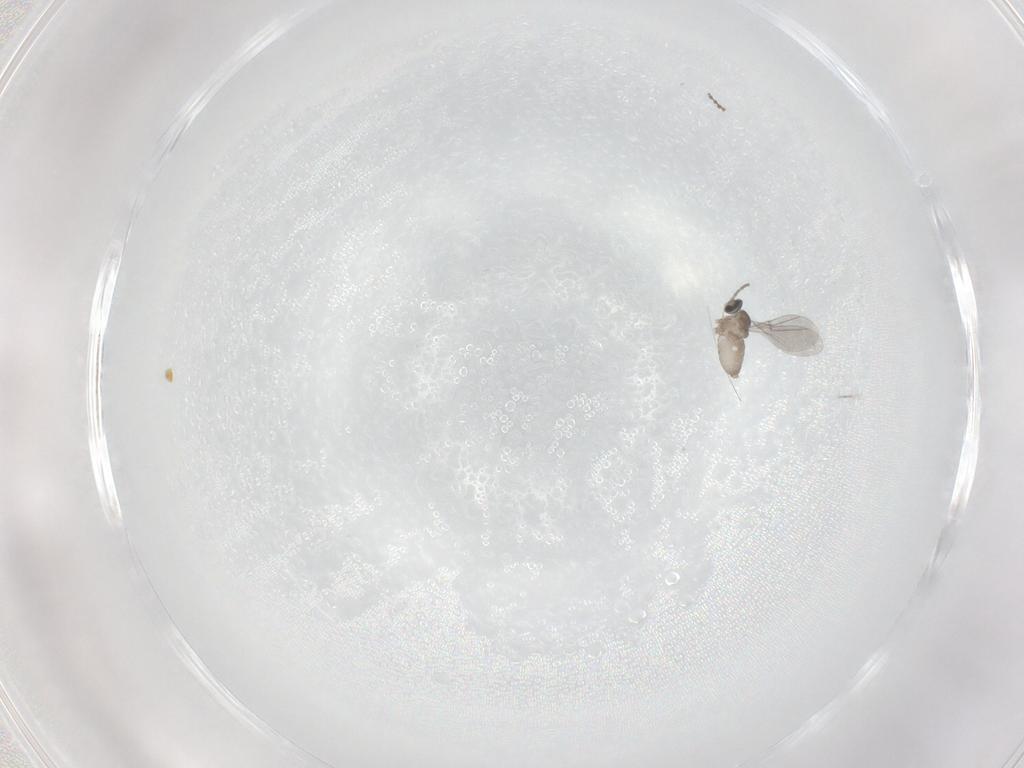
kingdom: Animalia
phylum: Arthropoda
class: Insecta
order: Diptera
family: Cecidomyiidae
